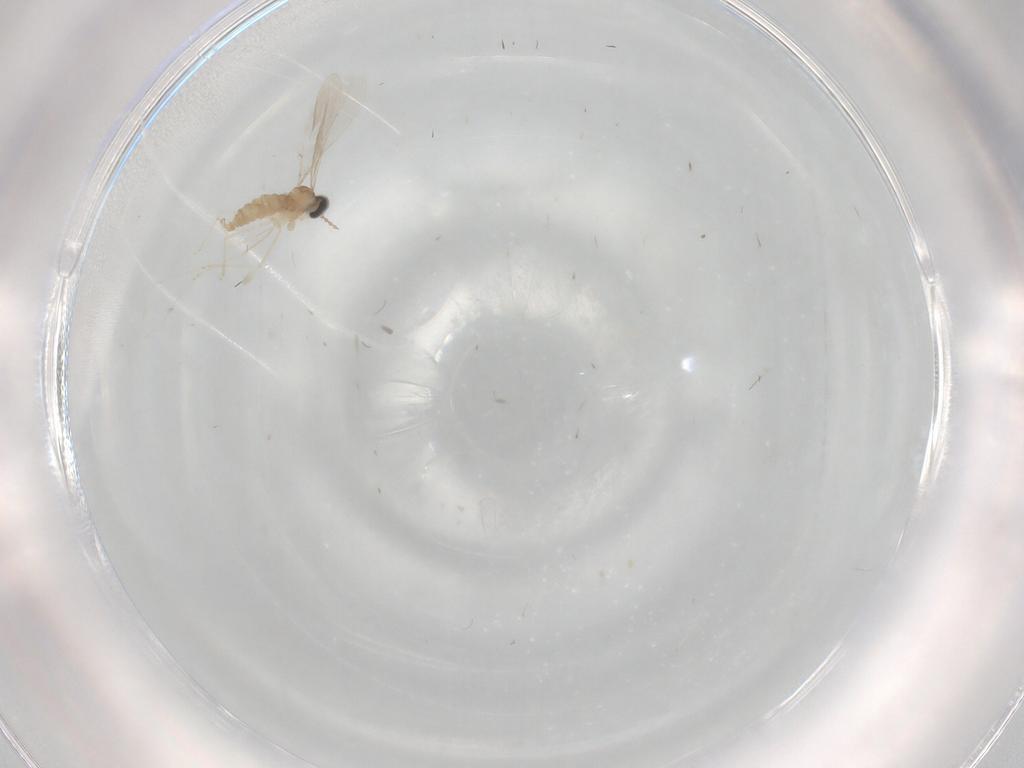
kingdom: Animalia
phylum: Arthropoda
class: Insecta
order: Diptera
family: Cecidomyiidae
